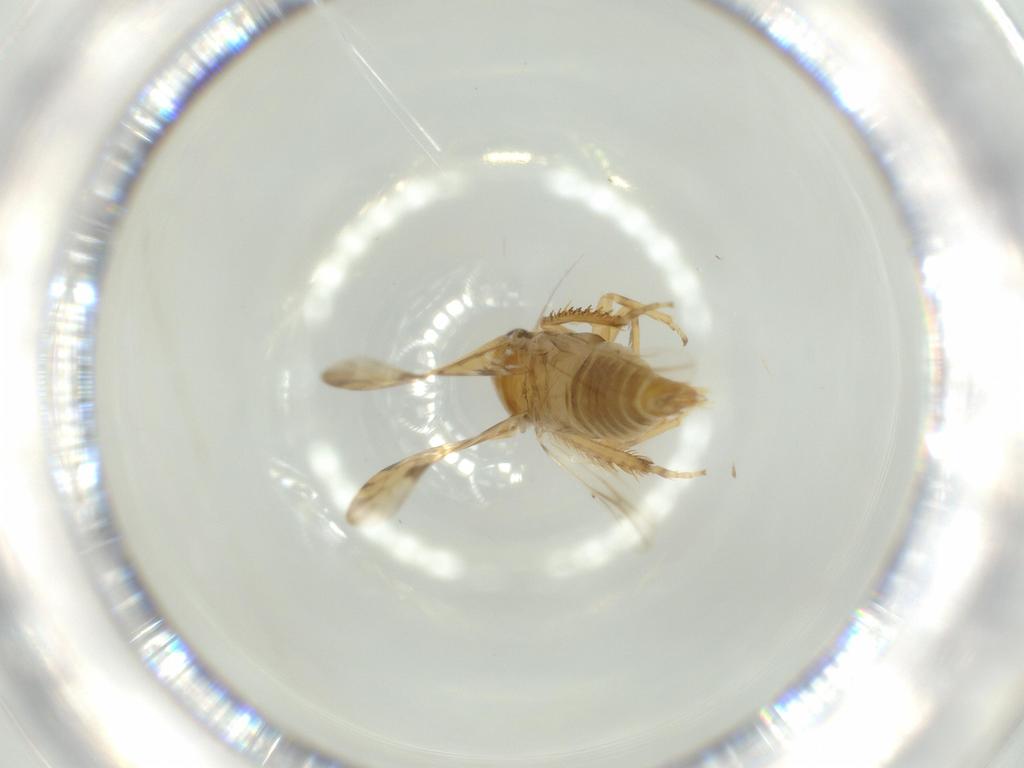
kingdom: Animalia
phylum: Arthropoda
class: Insecta
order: Hemiptera
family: Cicadellidae
